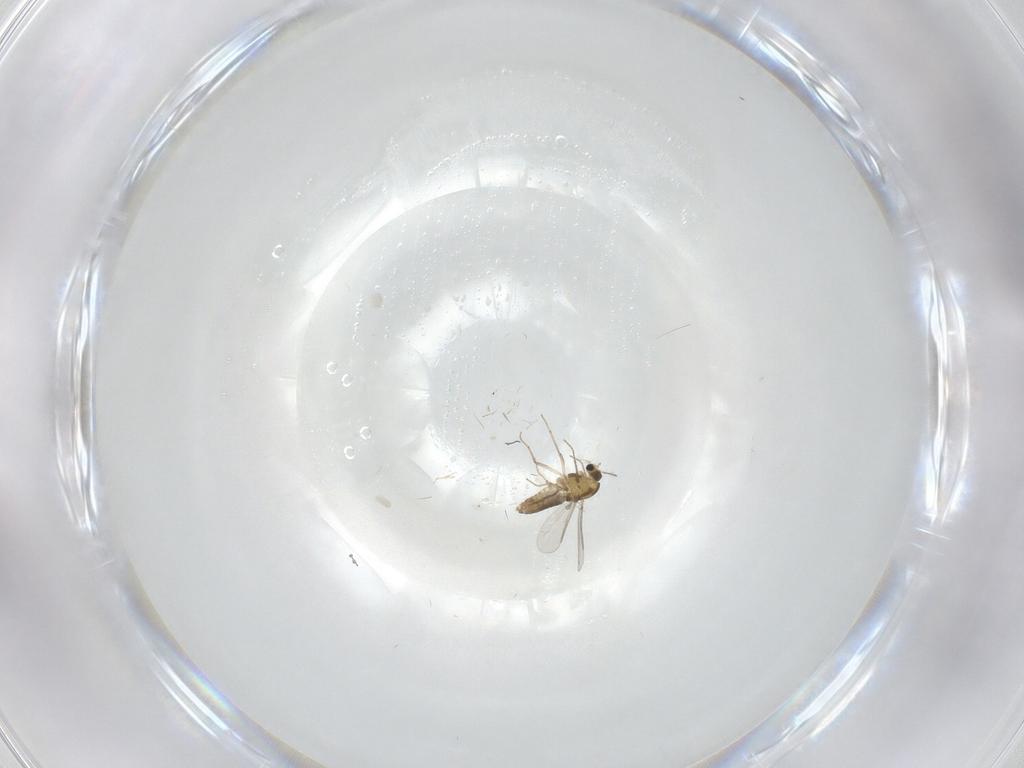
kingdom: Animalia
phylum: Arthropoda
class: Insecta
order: Diptera
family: Chironomidae
